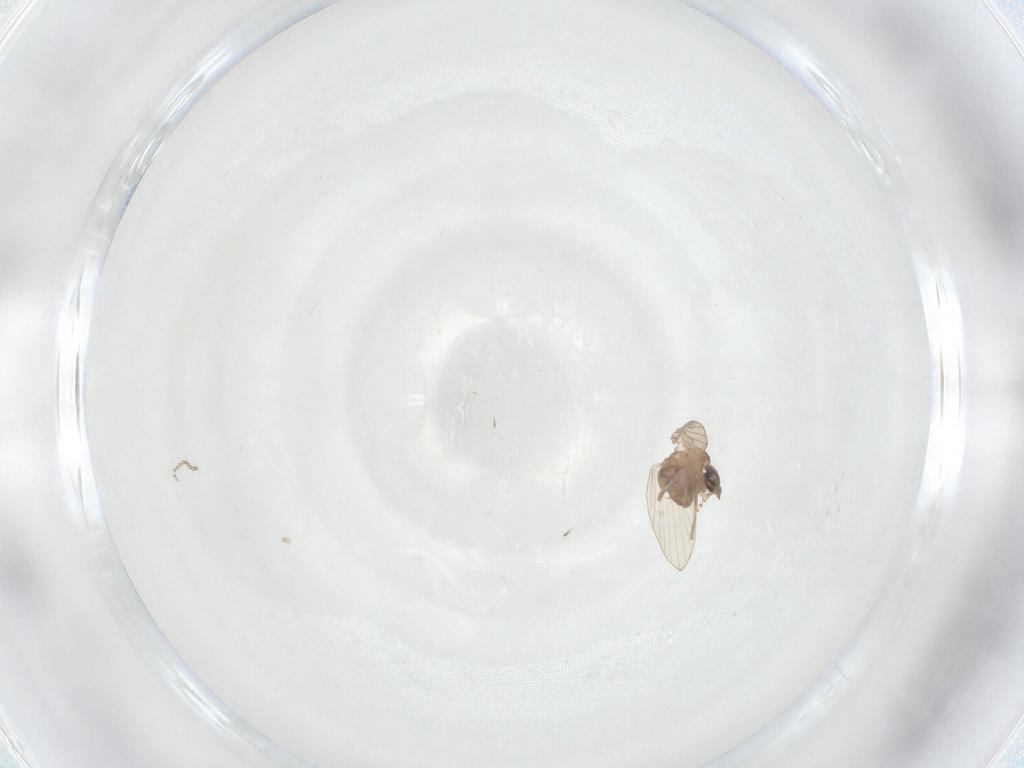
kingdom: Animalia
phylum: Arthropoda
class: Insecta
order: Diptera
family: Psychodidae
